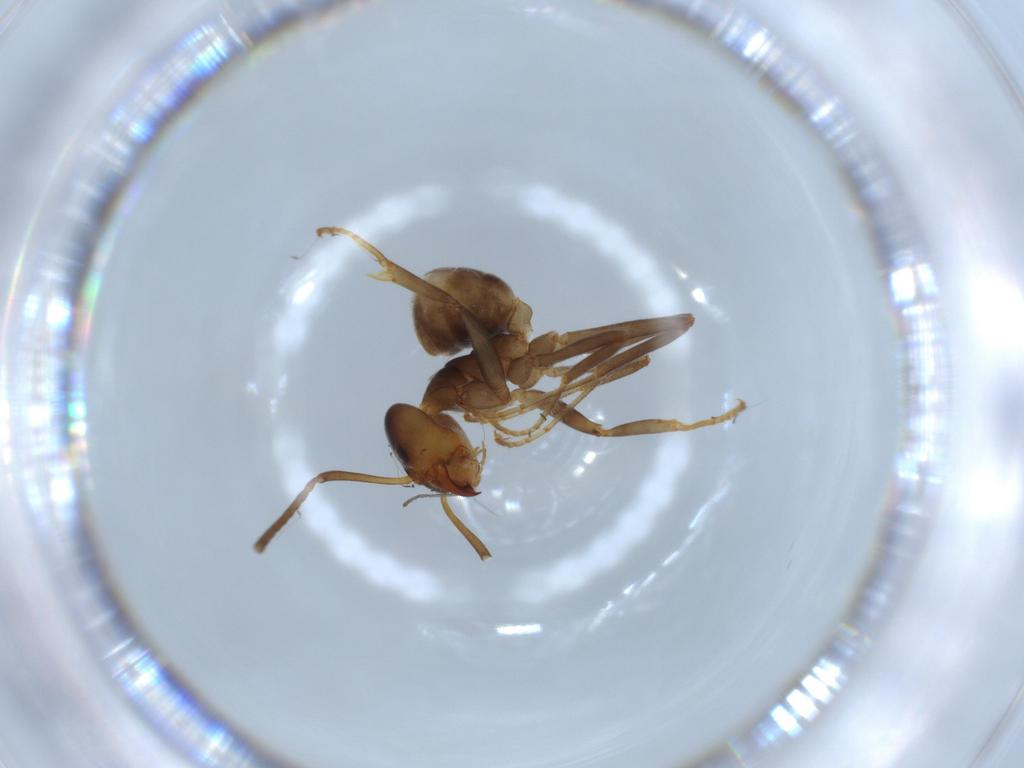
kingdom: Animalia
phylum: Arthropoda
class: Insecta
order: Hymenoptera
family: Formicidae
